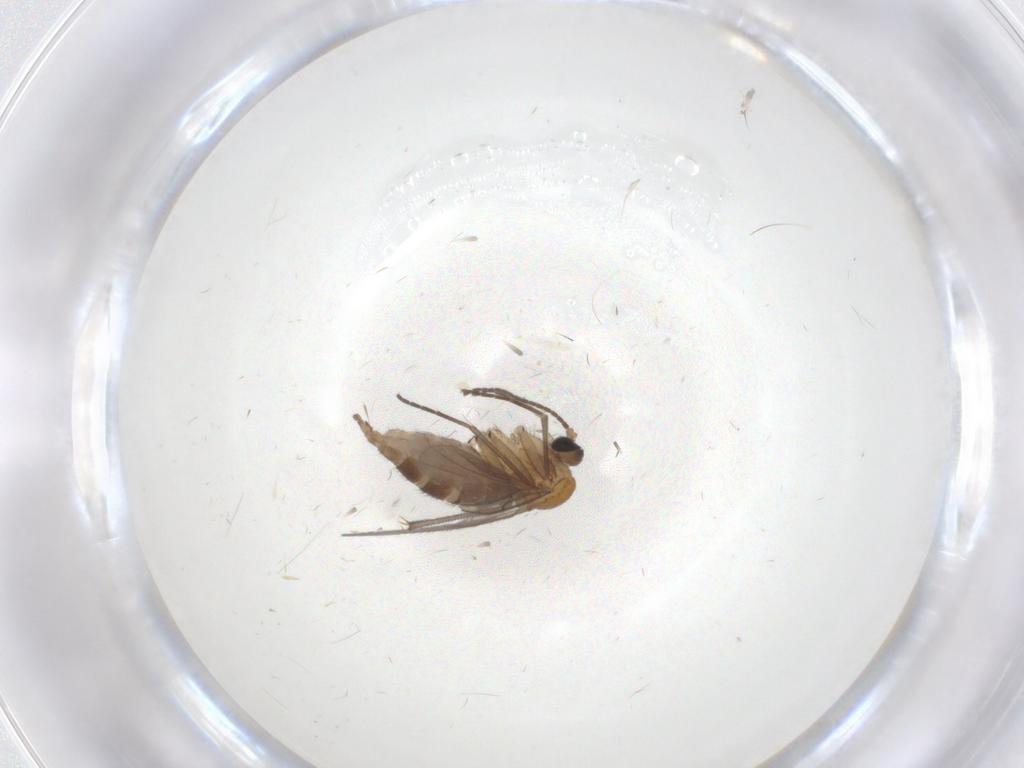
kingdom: Animalia
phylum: Arthropoda
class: Insecta
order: Diptera
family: Sciaridae
